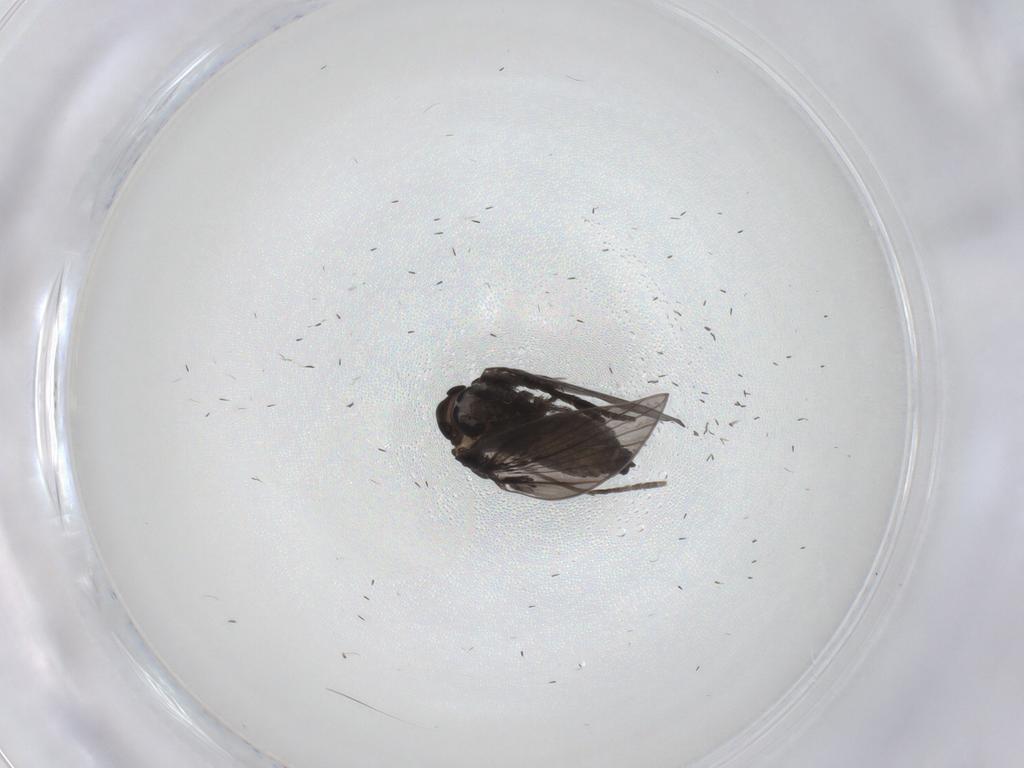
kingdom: Animalia
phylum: Arthropoda
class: Insecta
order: Diptera
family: Psychodidae
